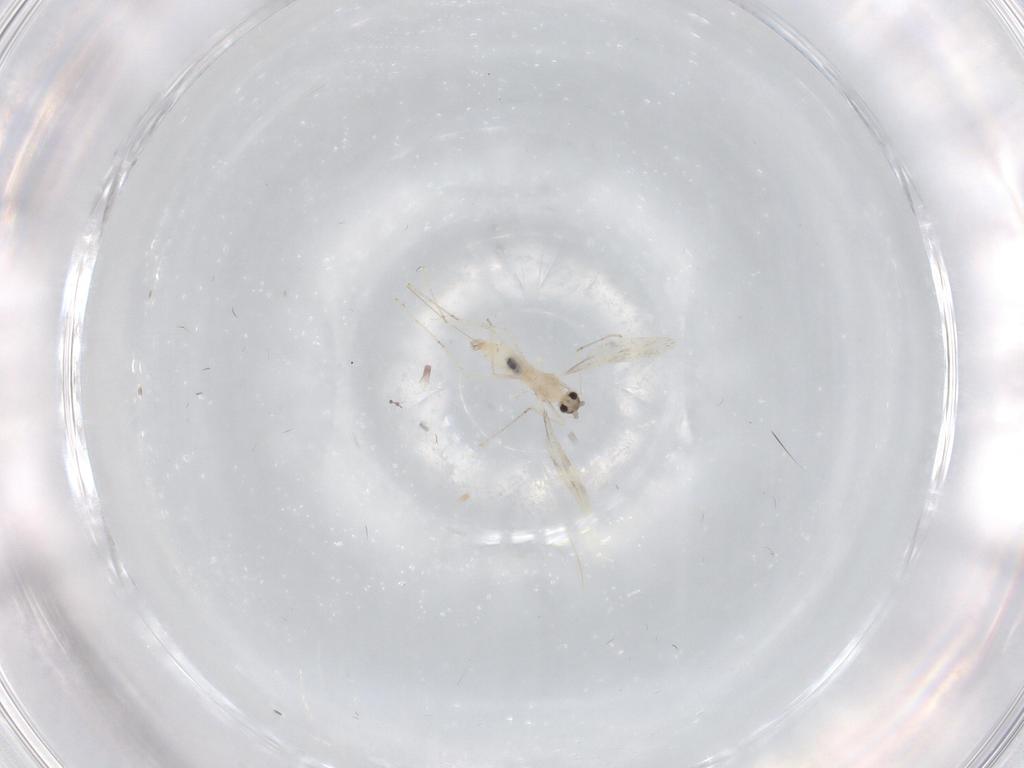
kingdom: Animalia
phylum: Arthropoda
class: Insecta
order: Diptera
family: Cecidomyiidae
